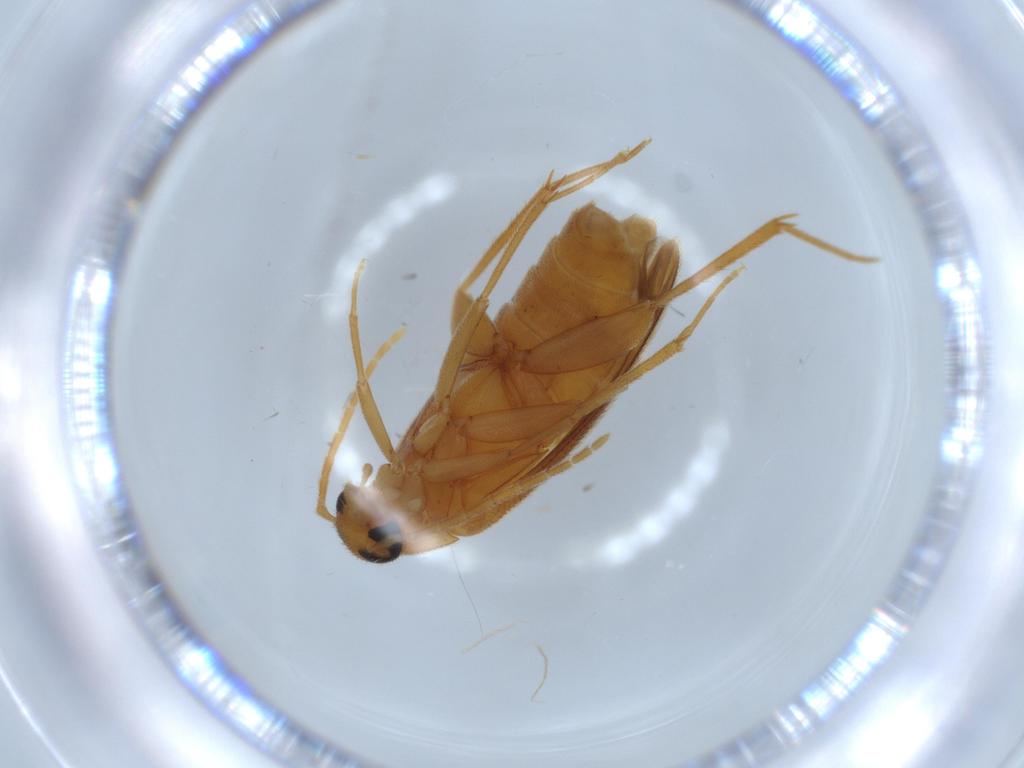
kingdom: Animalia
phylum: Arthropoda
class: Insecta
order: Coleoptera
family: Scraptiidae
